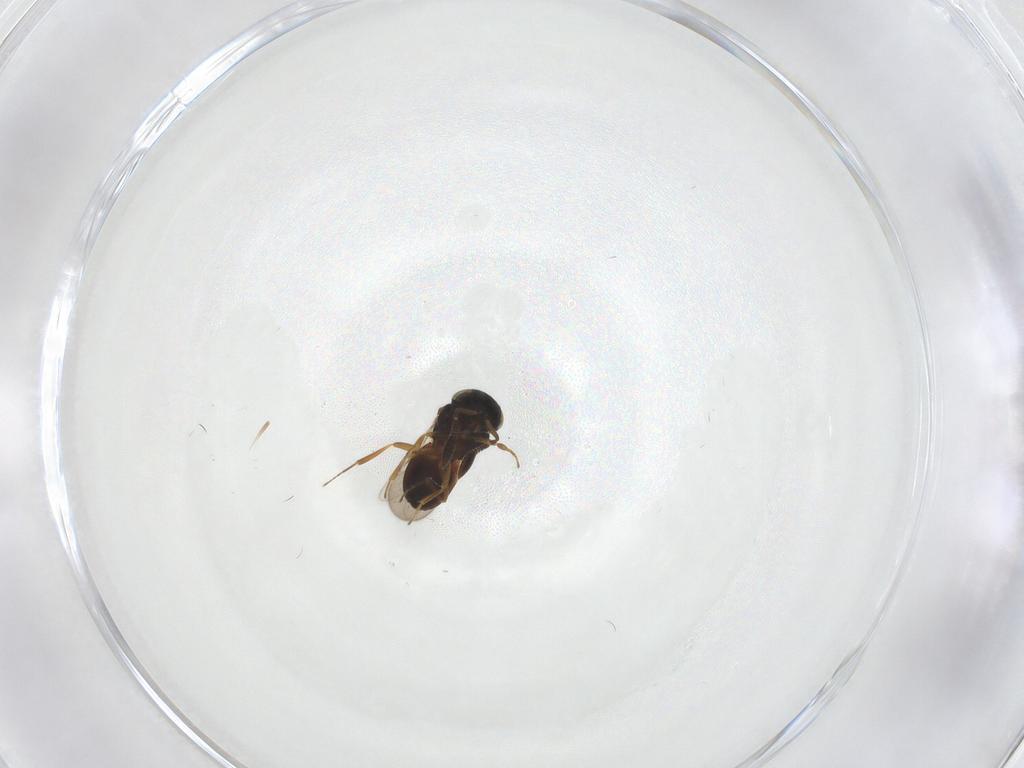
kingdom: Animalia
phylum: Arthropoda
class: Insecta
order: Hymenoptera
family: Scelionidae
